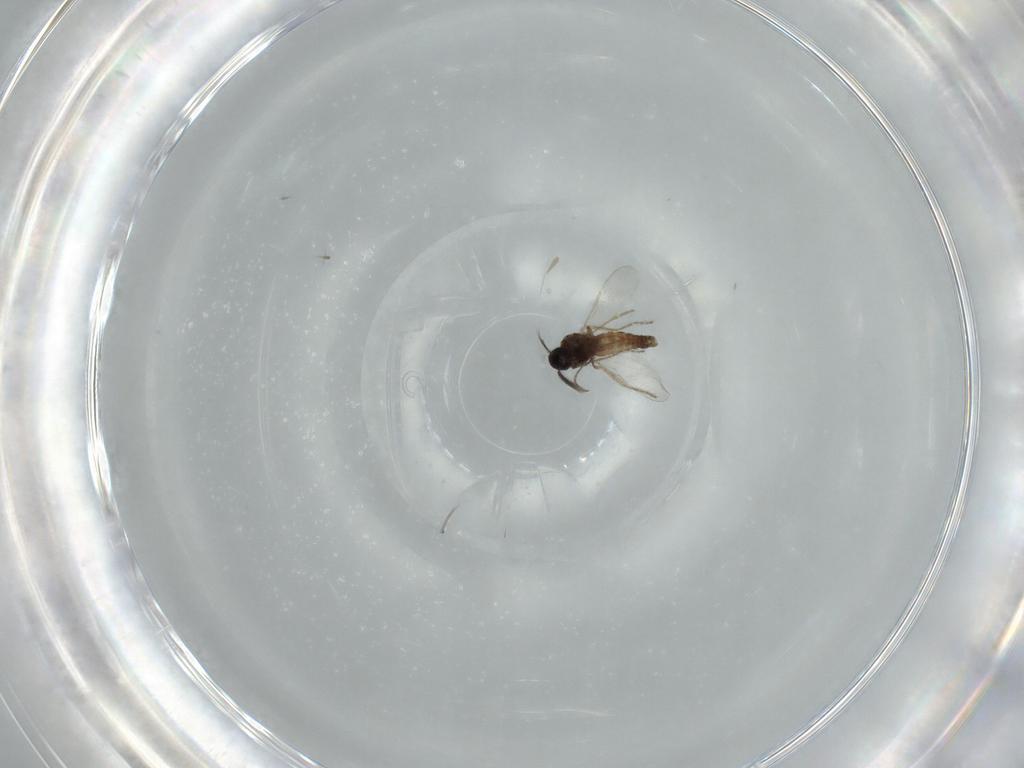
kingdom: Animalia
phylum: Arthropoda
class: Insecta
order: Diptera
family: Ceratopogonidae
